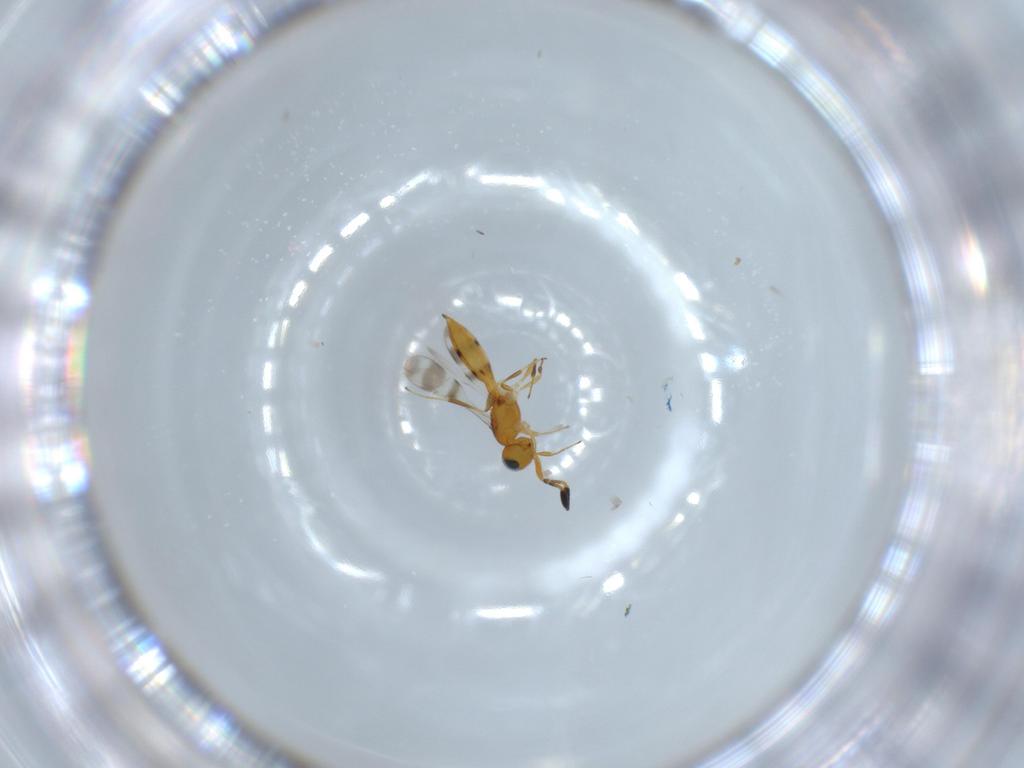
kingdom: Animalia
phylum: Arthropoda
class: Insecta
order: Hymenoptera
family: Scelionidae
